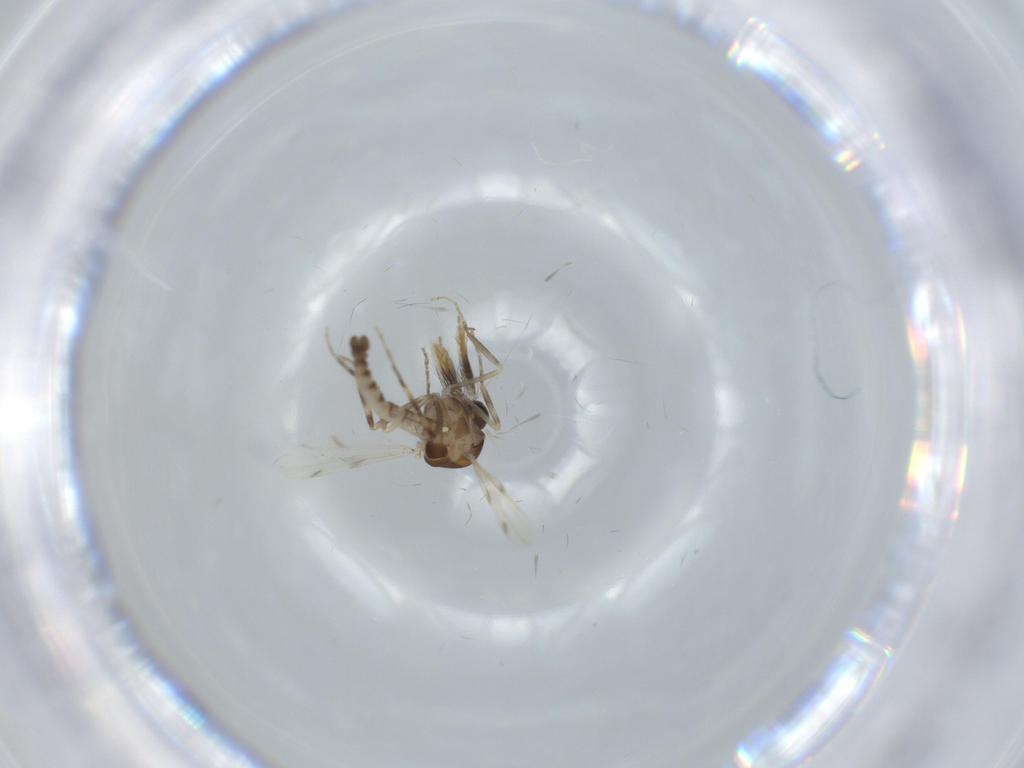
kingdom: Animalia
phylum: Arthropoda
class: Insecta
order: Diptera
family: Ceratopogonidae
